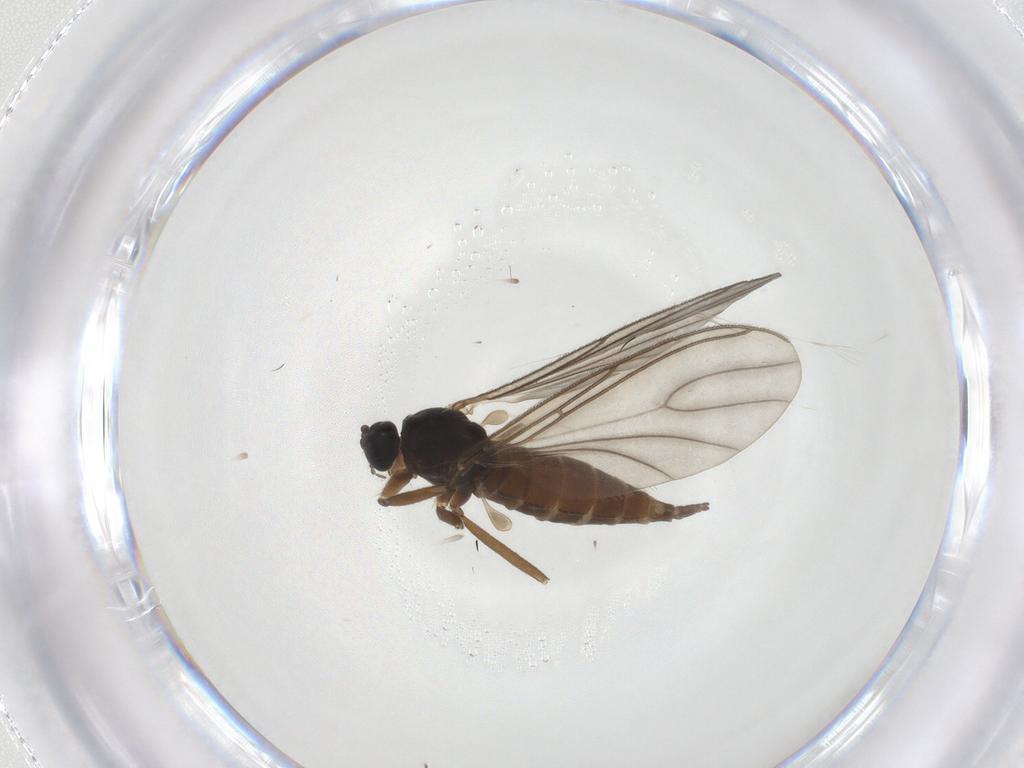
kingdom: Animalia
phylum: Arthropoda
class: Insecta
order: Diptera
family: Sciaridae
